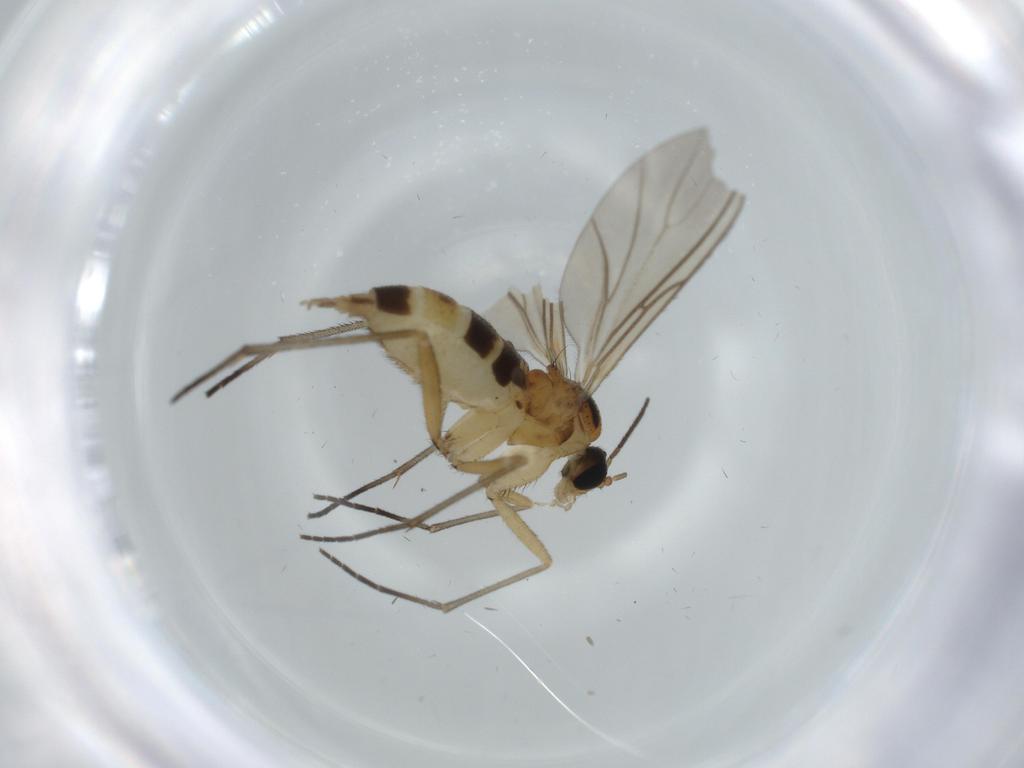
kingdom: Animalia
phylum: Arthropoda
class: Insecta
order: Diptera
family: Sciaridae
